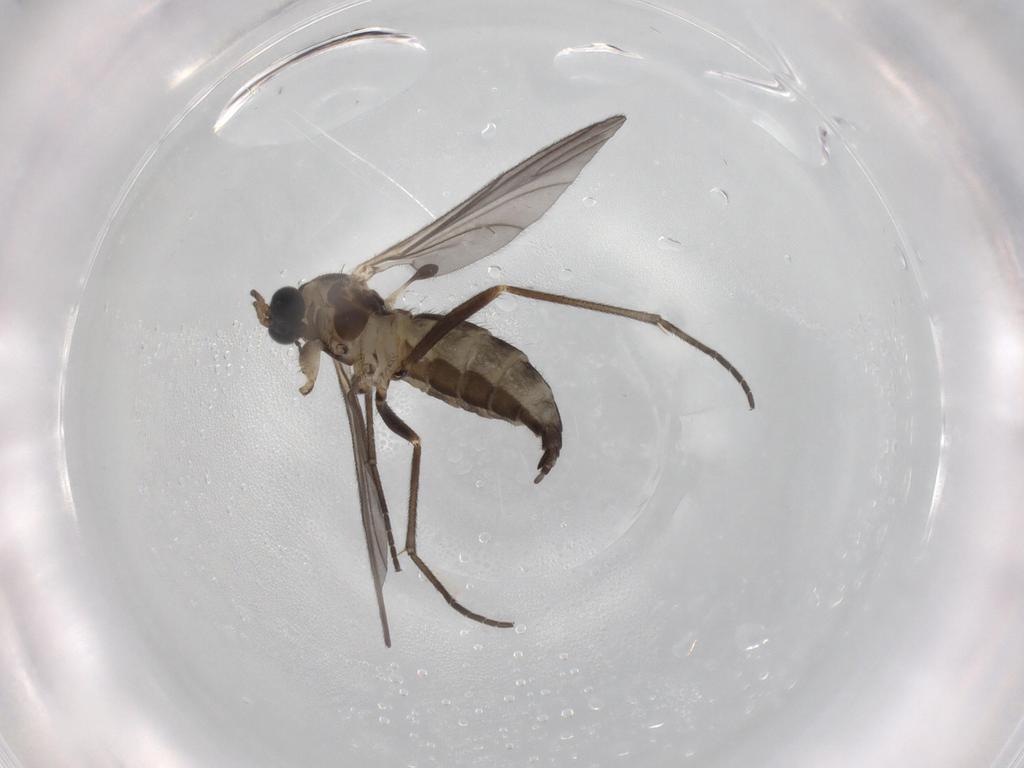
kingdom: Animalia
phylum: Arthropoda
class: Insecta
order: Diptera
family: Sciaridae
